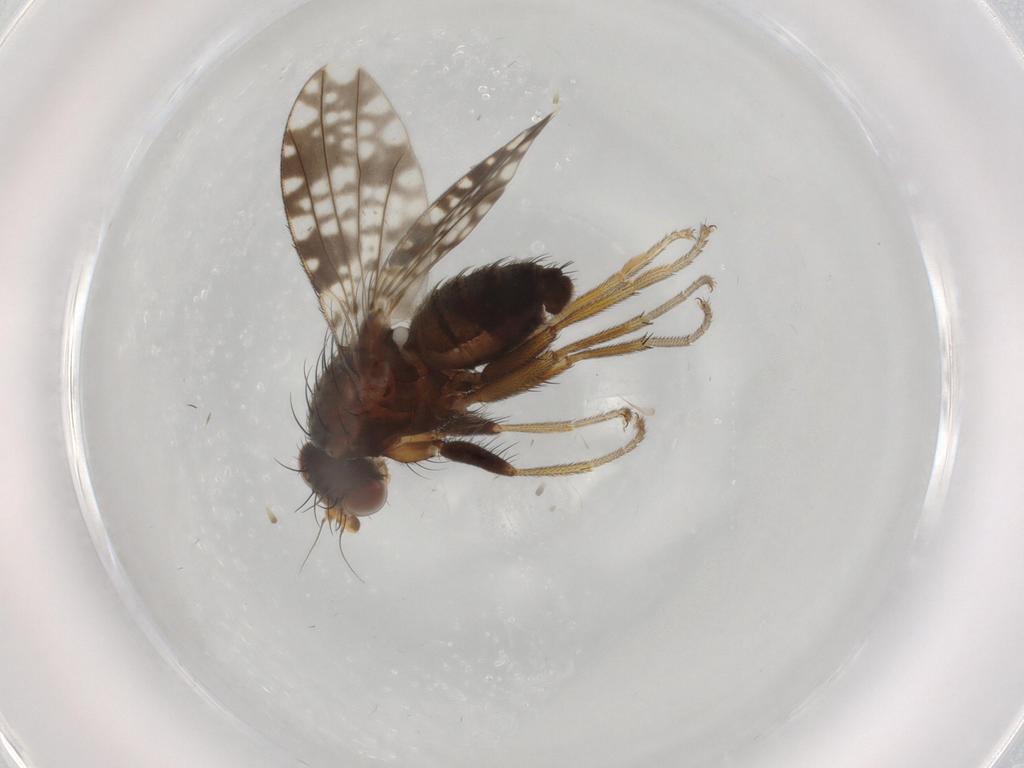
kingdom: Animalia
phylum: Arthropoda
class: Insecta
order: Diptera
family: Tephritidae
